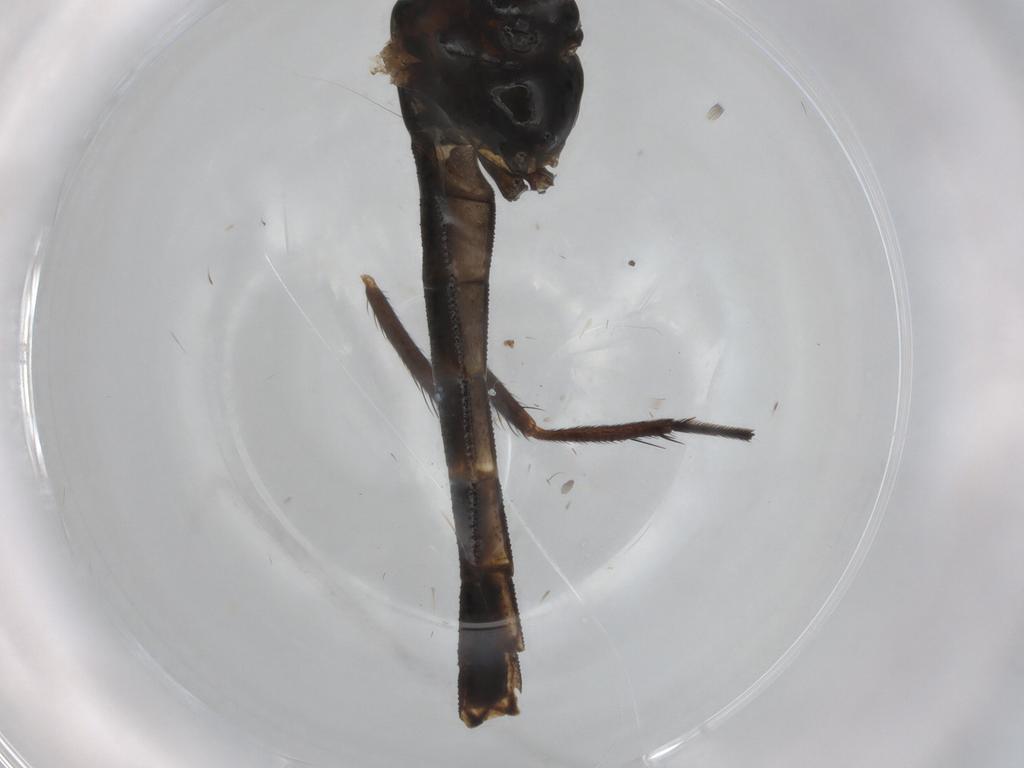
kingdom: Animalia
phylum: Arthropoda
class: Insecta
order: Diptera
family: Chironomidae
